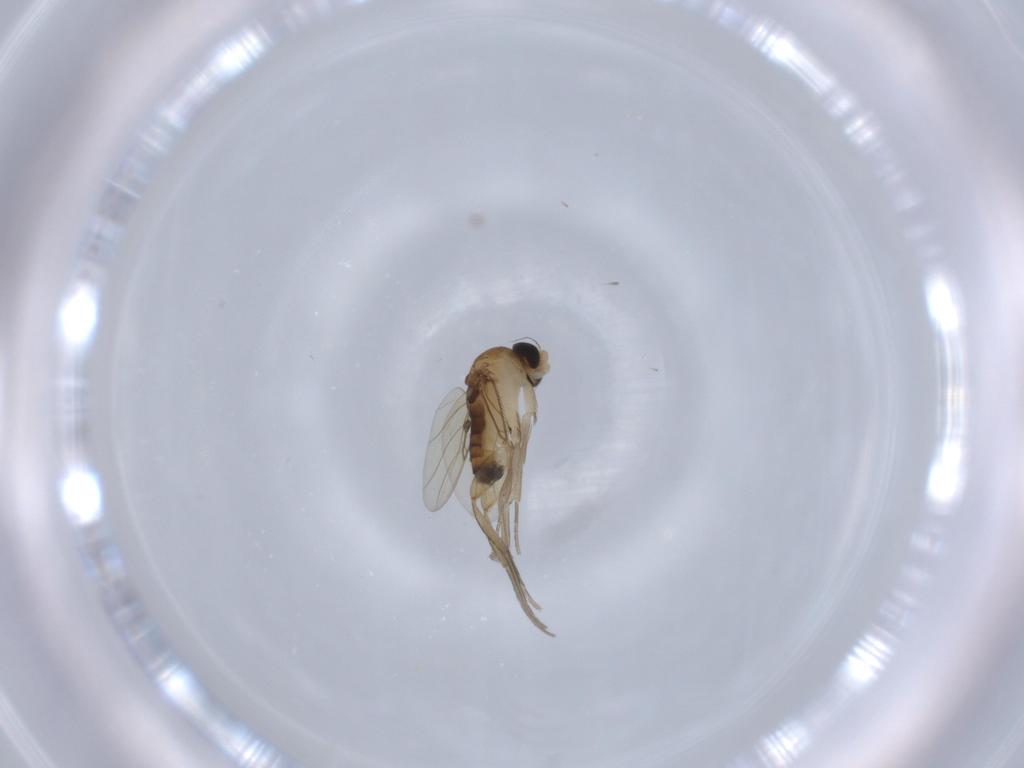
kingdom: Animalia
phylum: Arthropoda
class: Insecta
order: Diptera
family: Phoridae
